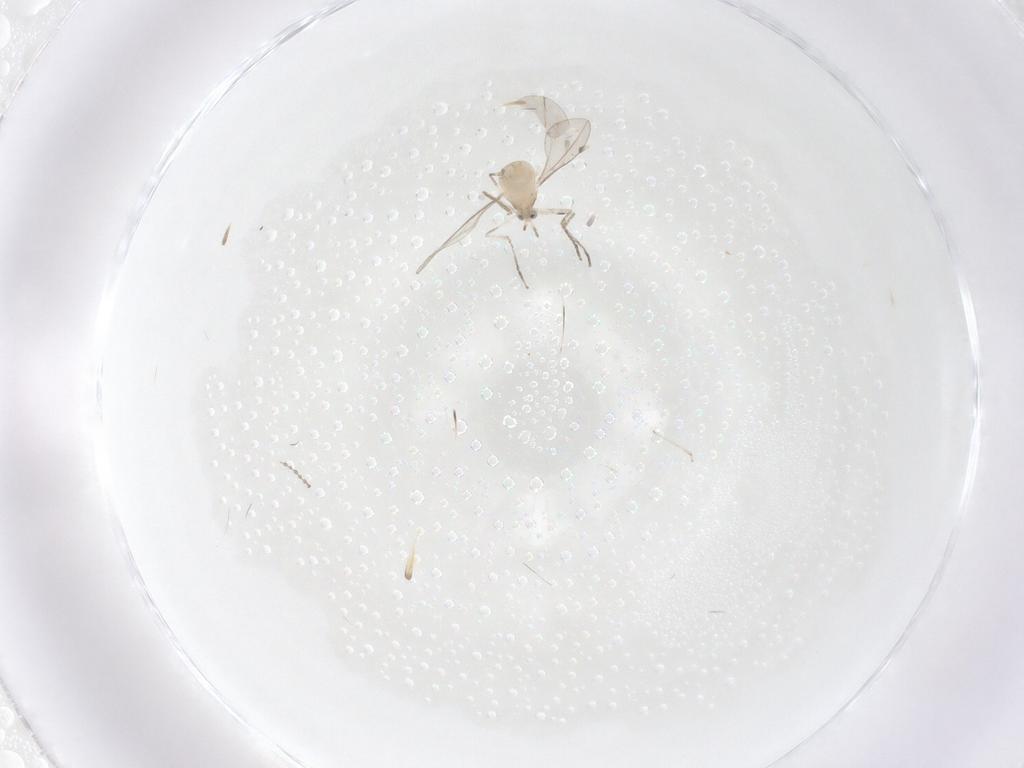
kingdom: Animalia
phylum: Arthropoda
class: Insecta
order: Diptera
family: Cecidomyiidae
